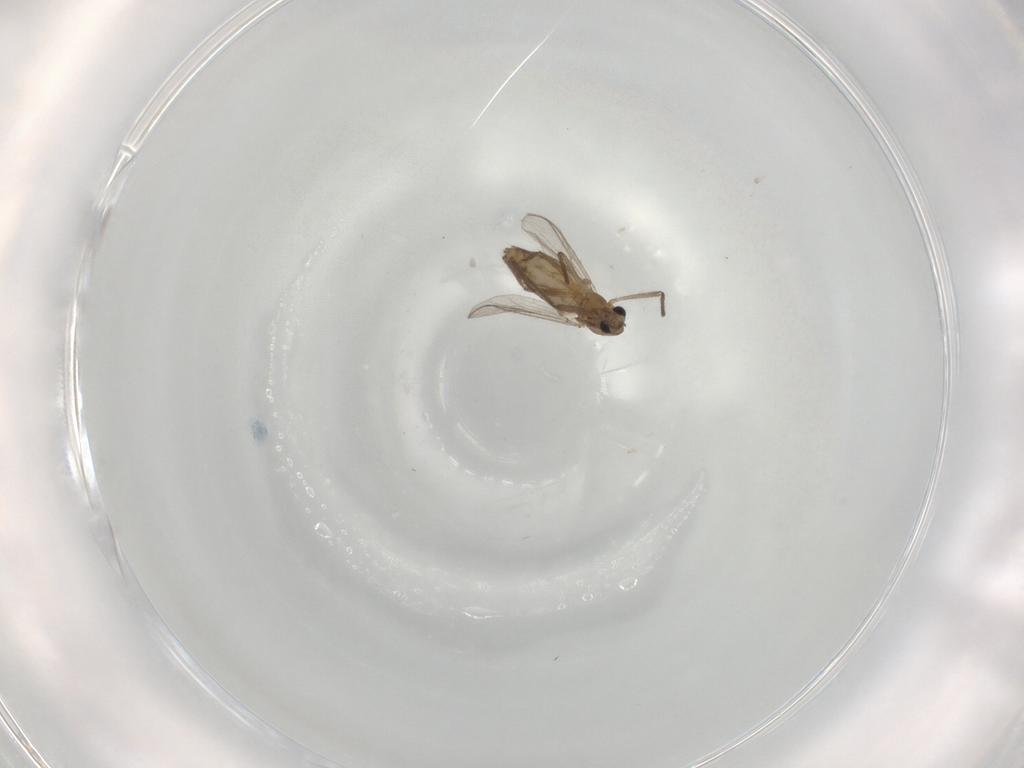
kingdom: Animalia
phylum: Arthropoda
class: Insecta
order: Diptera
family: Chironomidae
